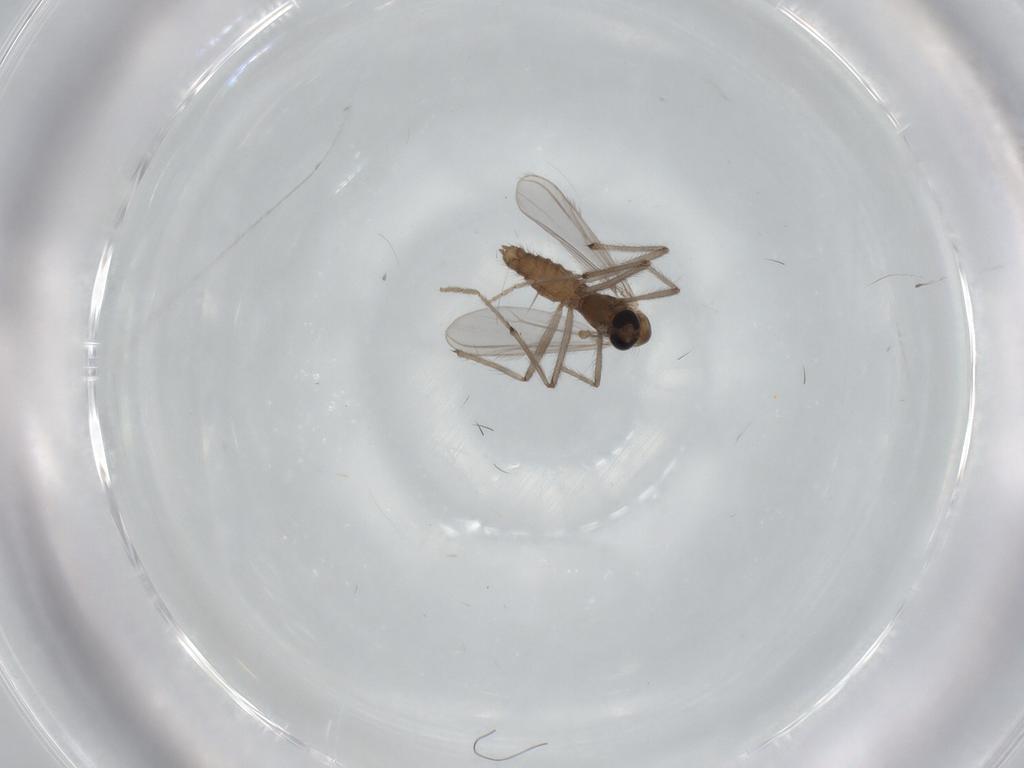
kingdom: Animalia
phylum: Arthropoda
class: Insecta
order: Diptera
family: Chironomidae
